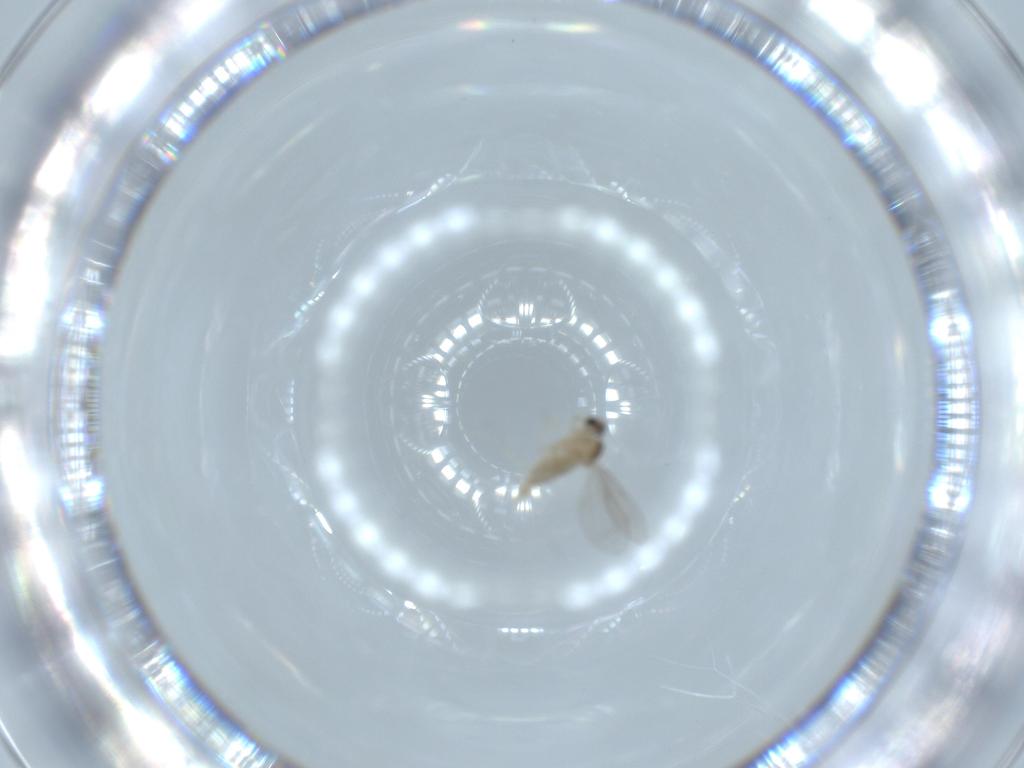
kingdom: Animalia
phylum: Arthropoda
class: Insecta
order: Diptera
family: Cecidomyiidae
